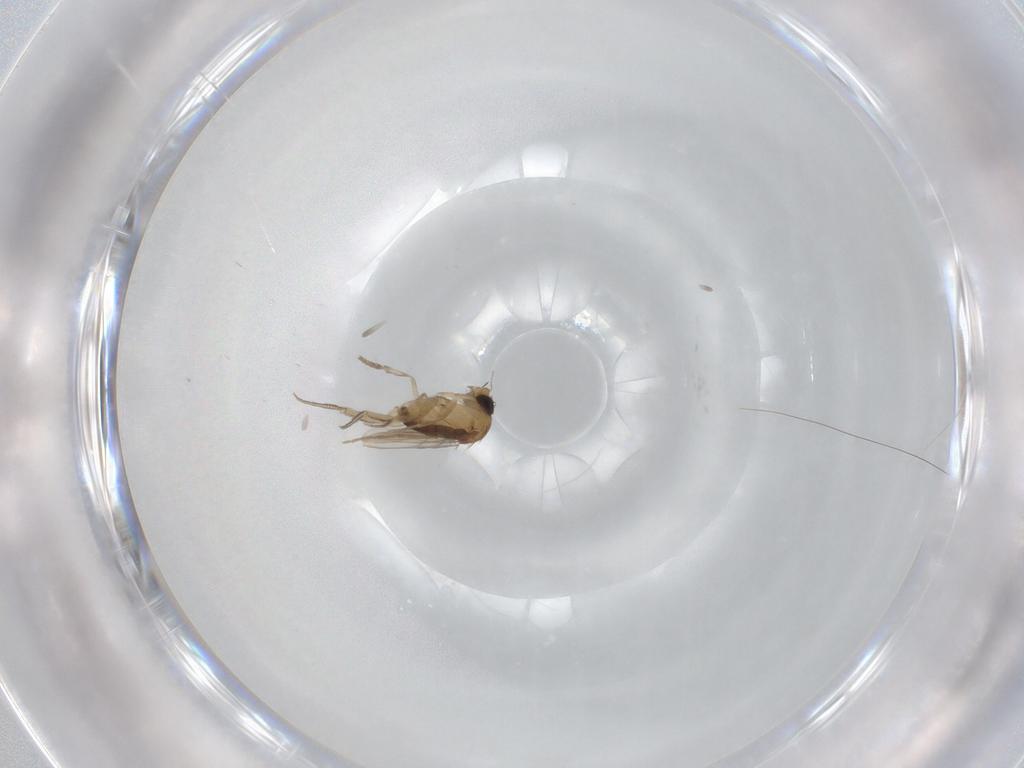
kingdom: Animalia
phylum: Arthropoda
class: Insecta
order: Diptera
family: Phoridae
